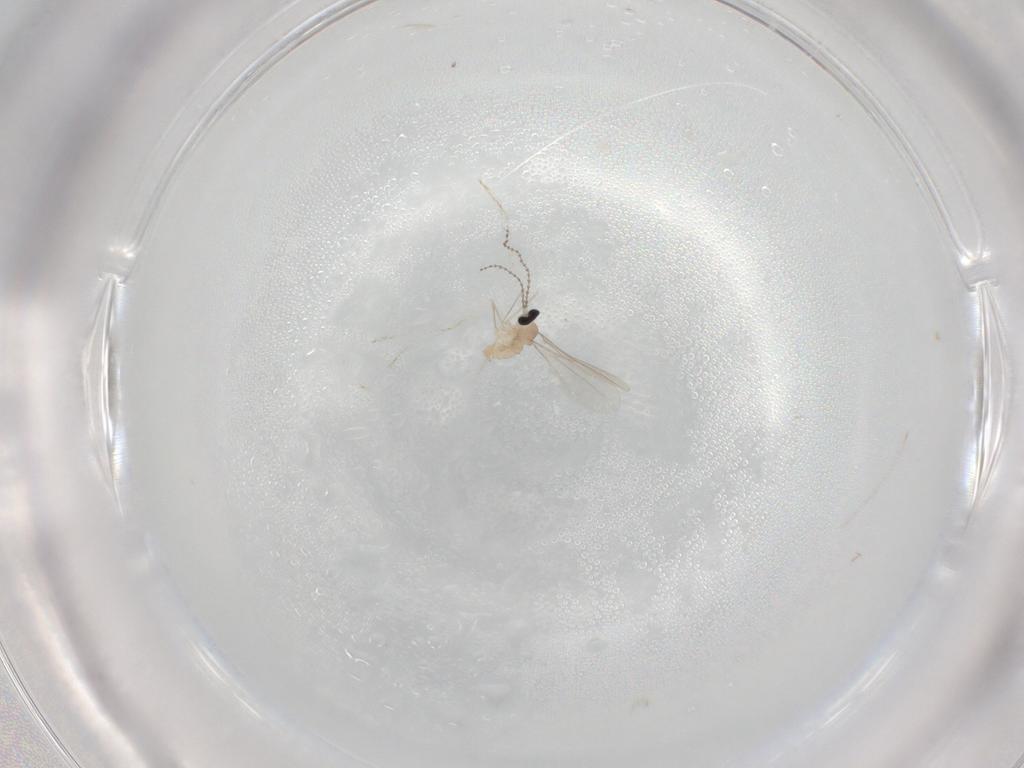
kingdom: Animalia
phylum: Arthropoda
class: Insecta
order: Diptera
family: Cecidomyiidae
